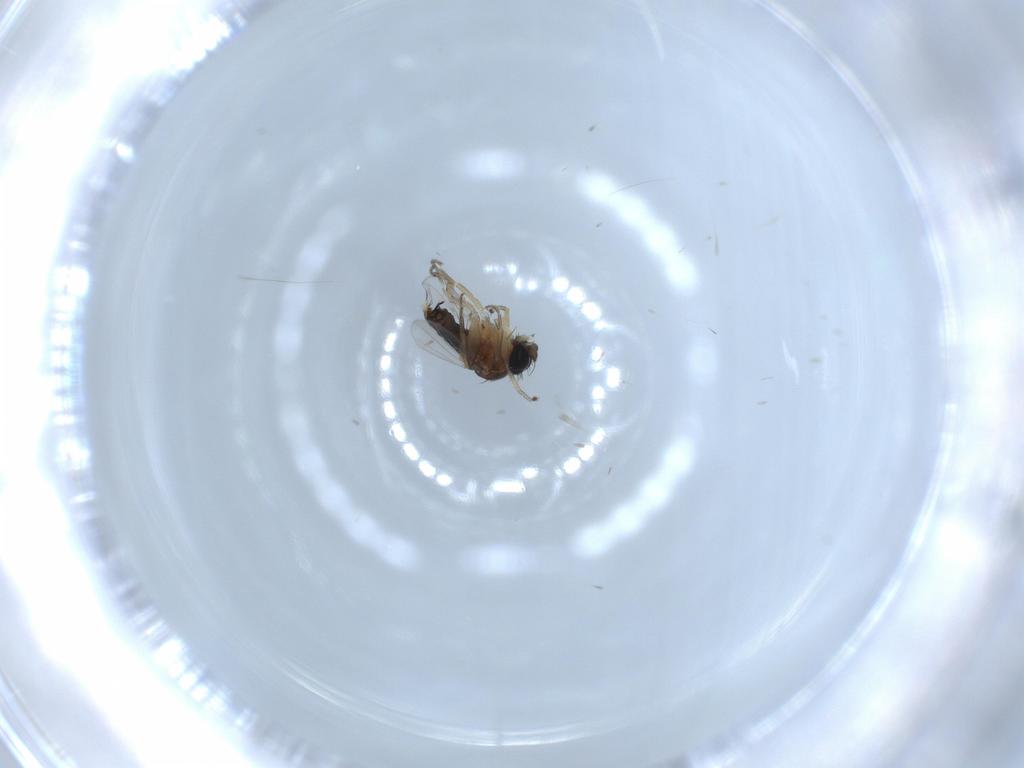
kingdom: Animalia
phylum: Arthropoda
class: Insecta
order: Diptera
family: Phoridae
